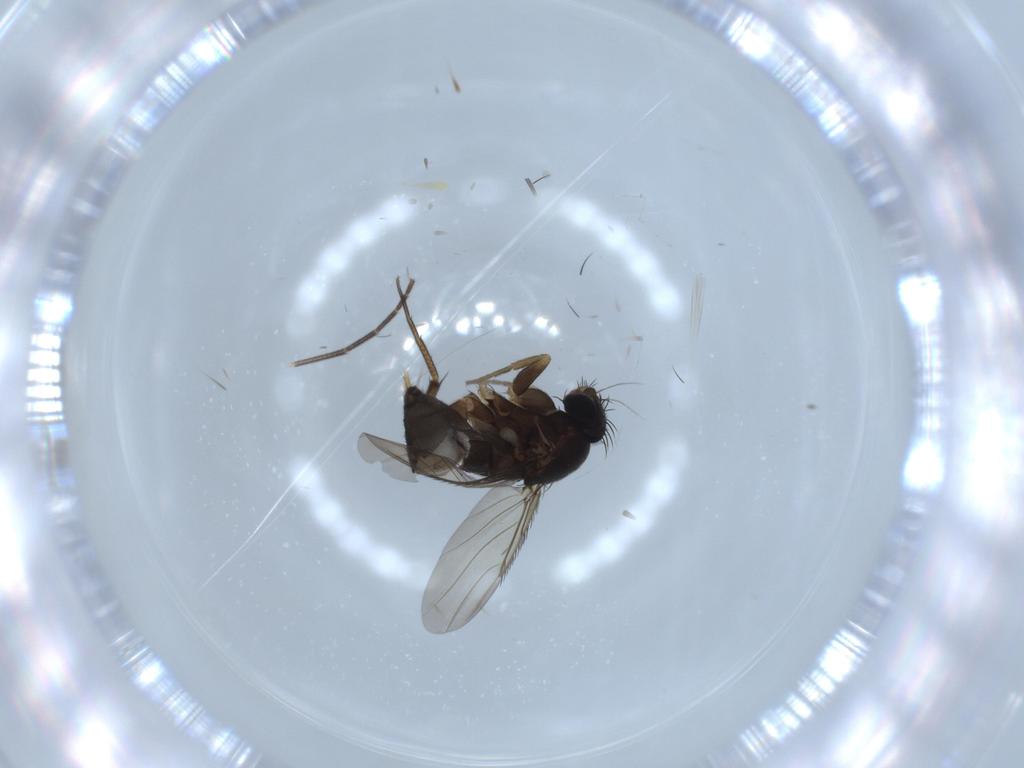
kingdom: Animalia
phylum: Arthropoda
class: Insecta
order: Diptera
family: Sciaridae
